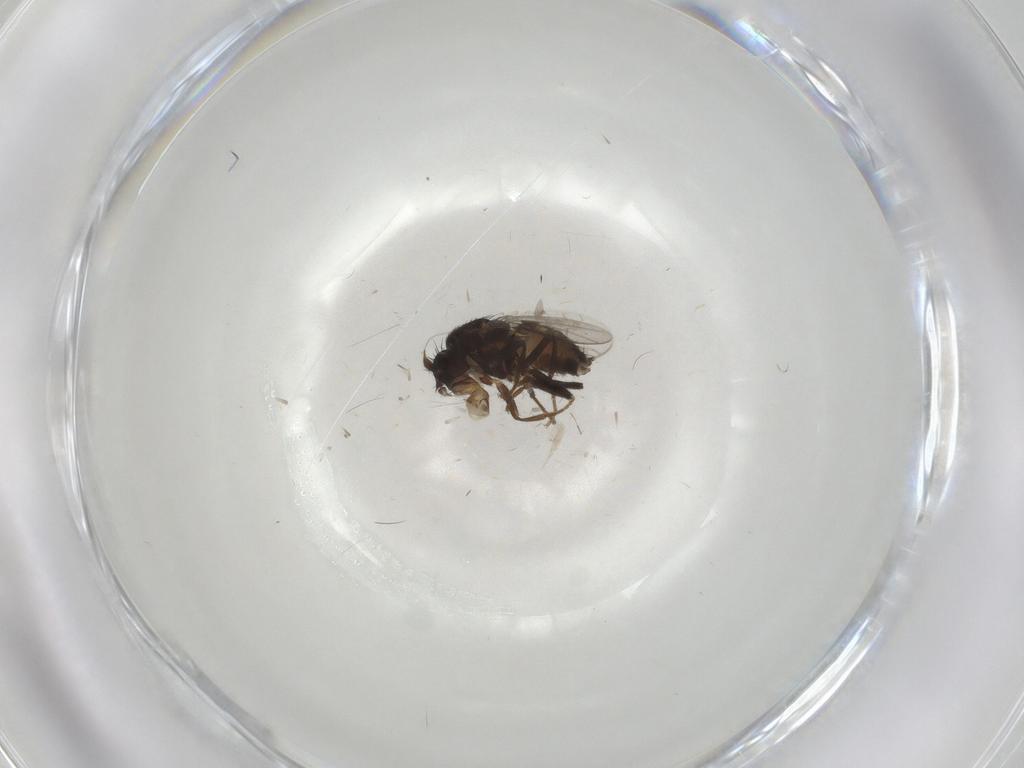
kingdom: Animalia
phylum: Arthropoda
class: Insecta
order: Diptera
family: Sphaeroceridae
